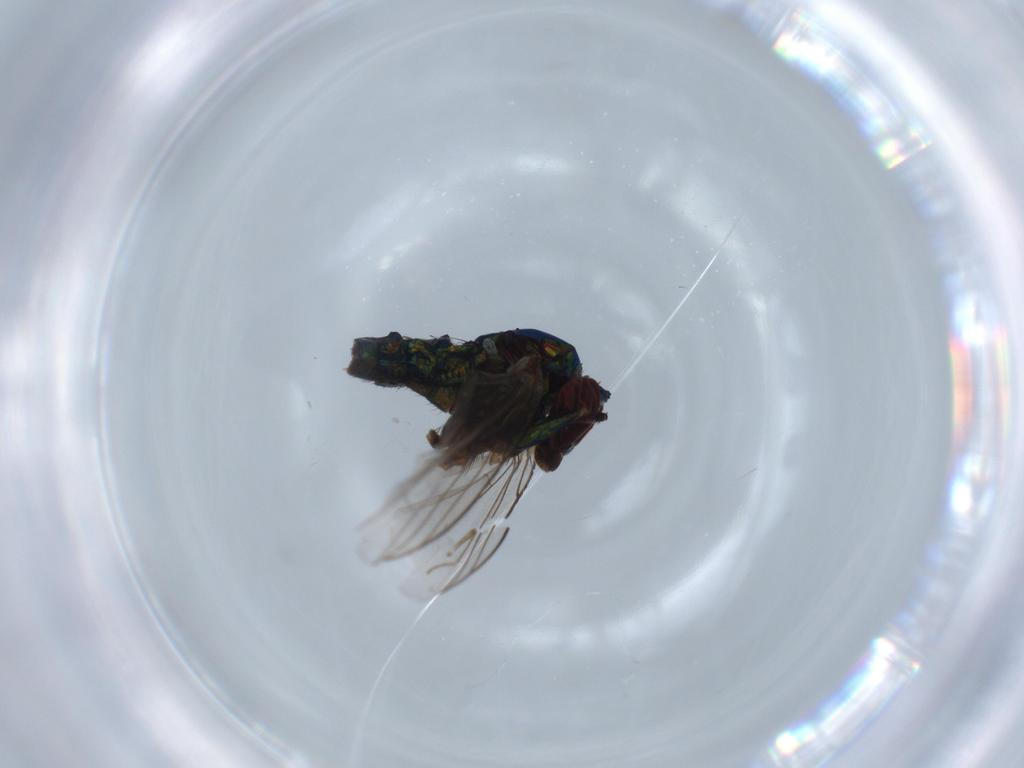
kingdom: Animalia
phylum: Arthropoda
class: Insecta
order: Diptera
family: Dolichopodidae
